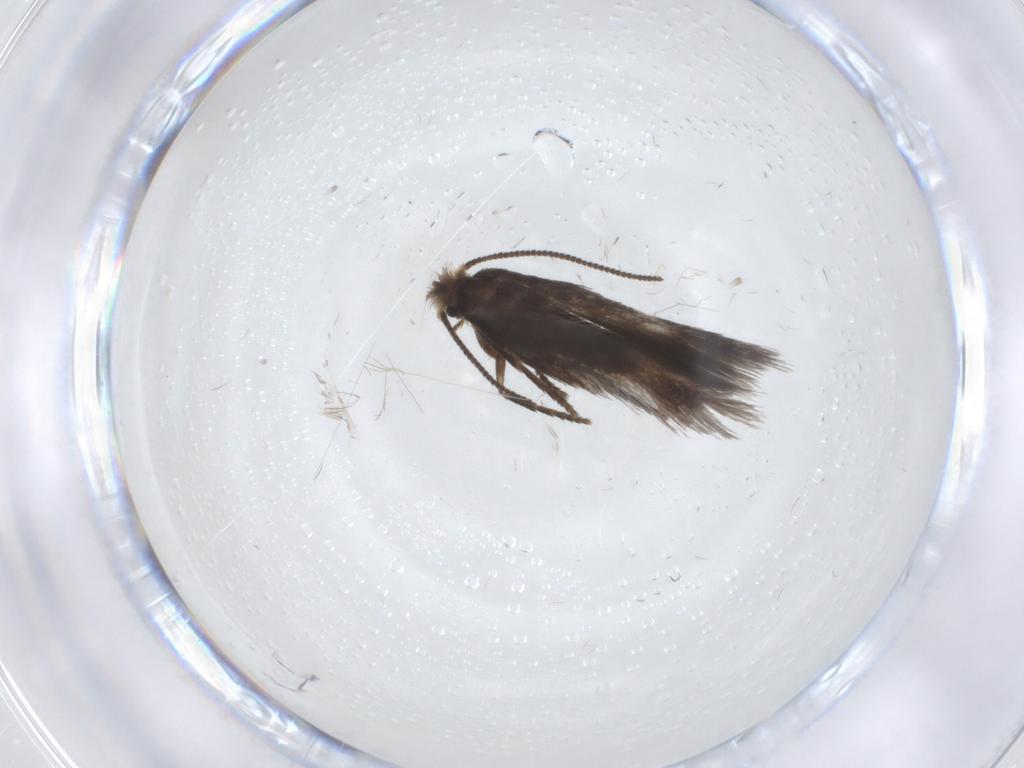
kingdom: Animalia
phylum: Arthropoda
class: Insecta
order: Lepidoptera
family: Nepticulidae
